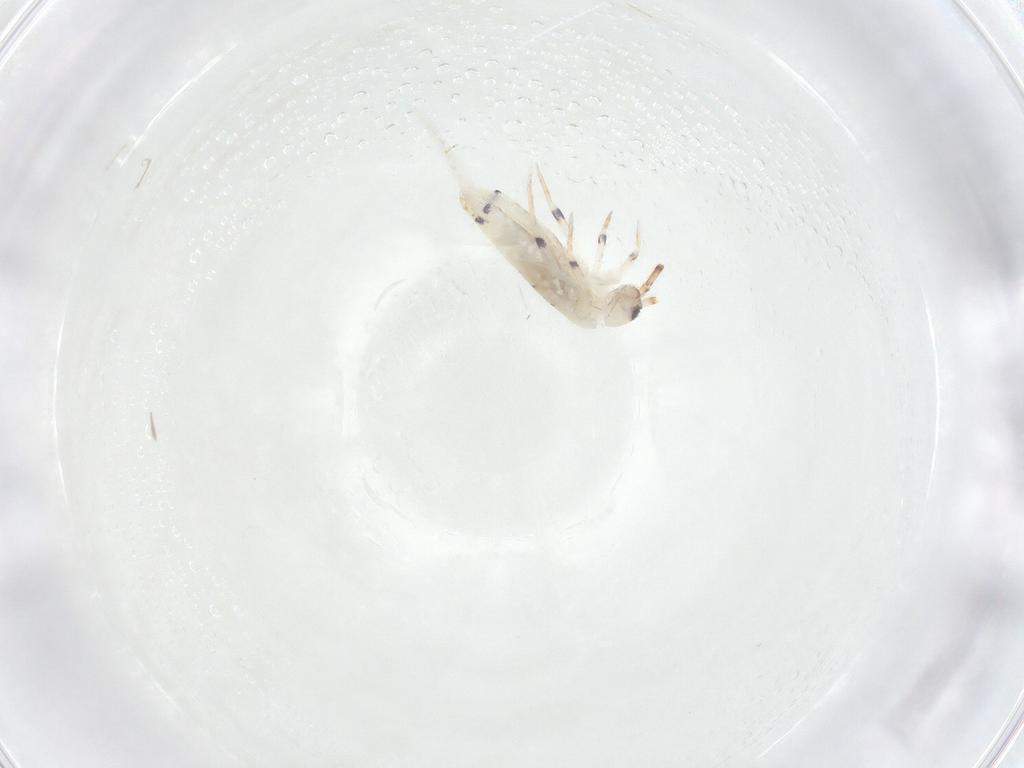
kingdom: Animalia
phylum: Arthropoda
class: Collembola
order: Entomobryomorpha
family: Entomobryidae
